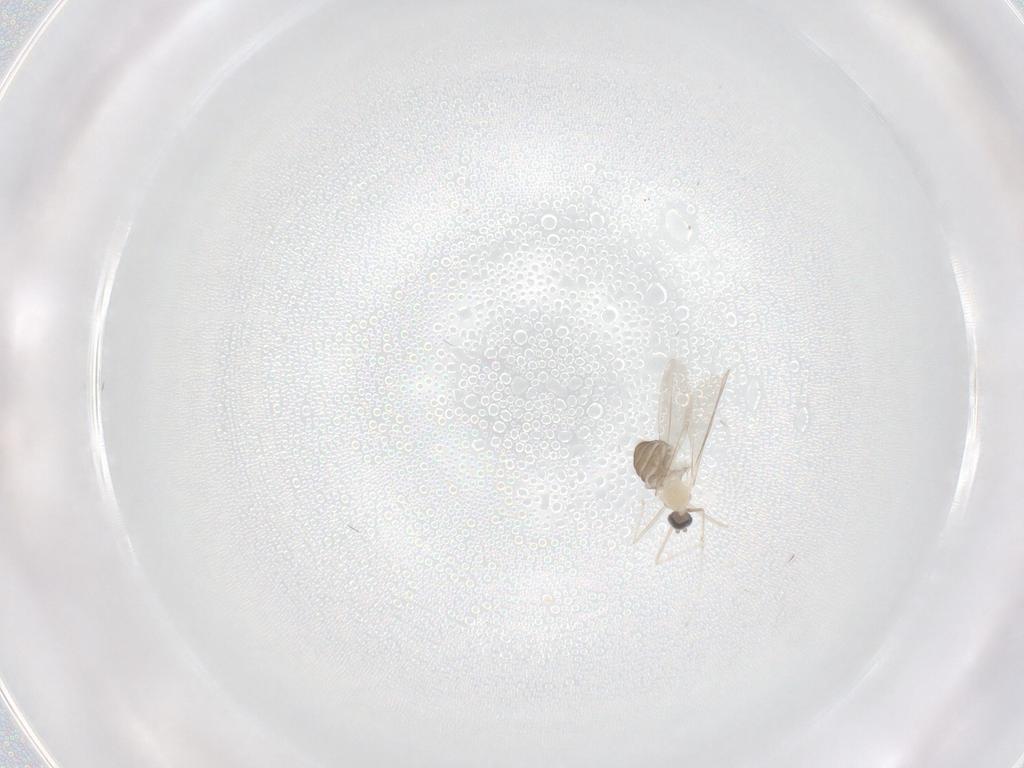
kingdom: Animalia
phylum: Arthropoda
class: Insecta
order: Diptera
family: Cecidomyiidae
